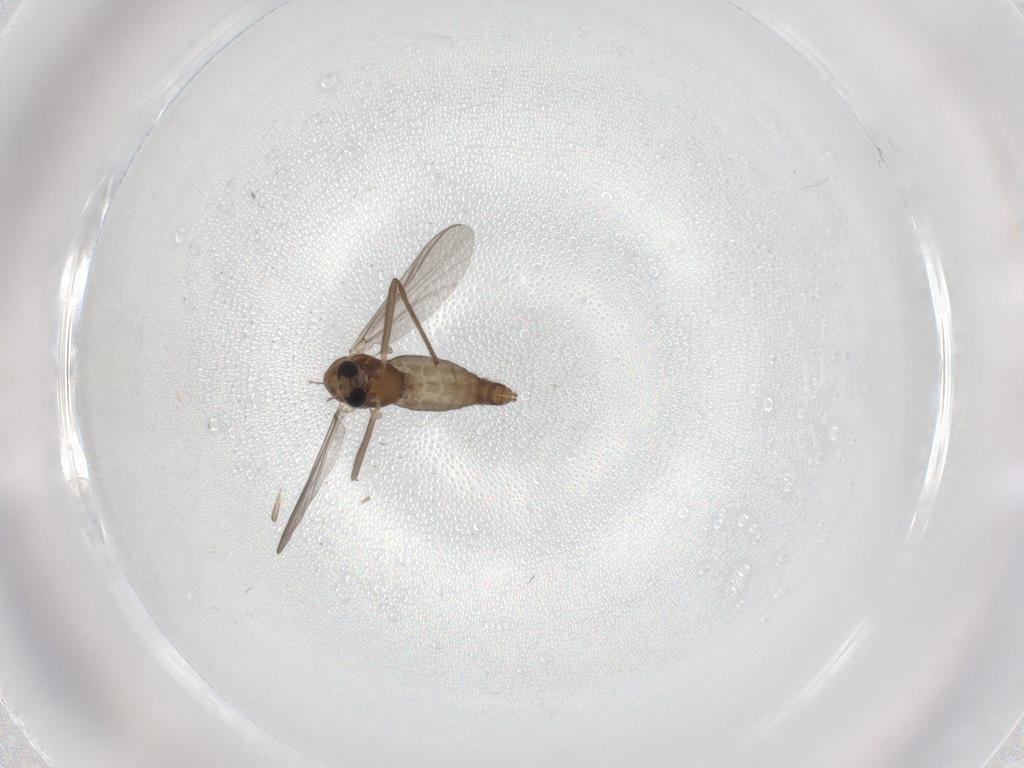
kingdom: Animalia
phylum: Arthropoda
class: Insecta
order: Diptera
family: Chironomidae
